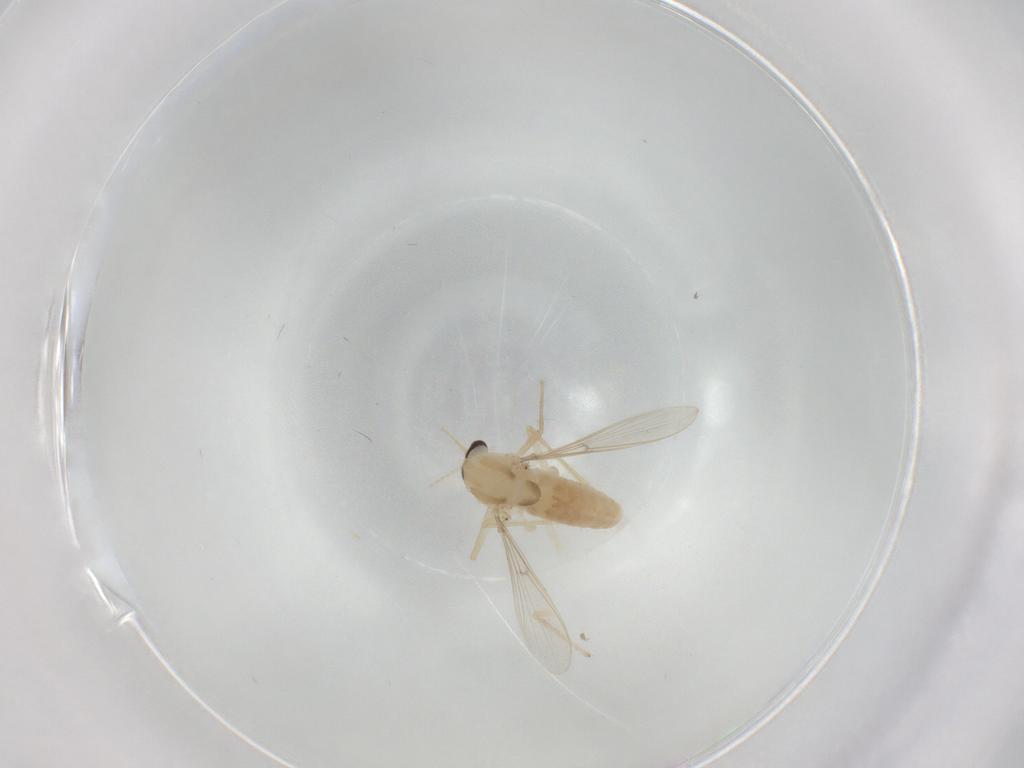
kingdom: Animalia
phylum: Arthropoda
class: Insecta
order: Diptera
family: Chironomidae
